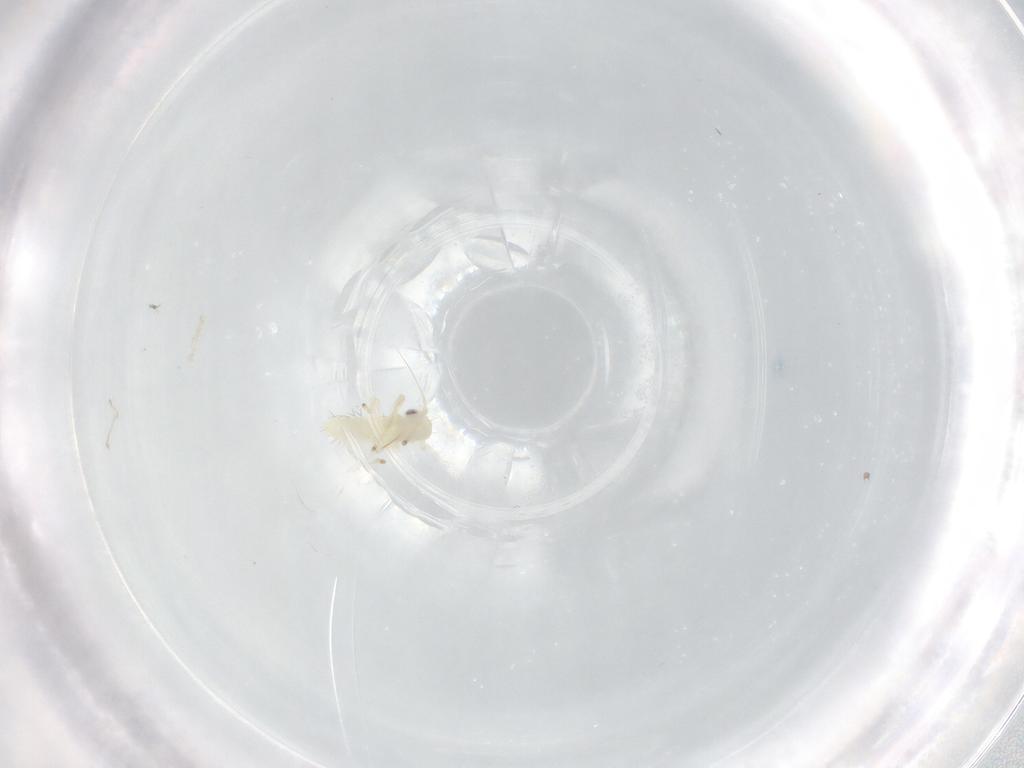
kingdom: Animalia
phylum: Arthropoda
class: Insecta
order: Hemiptera
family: Cicadellidae
